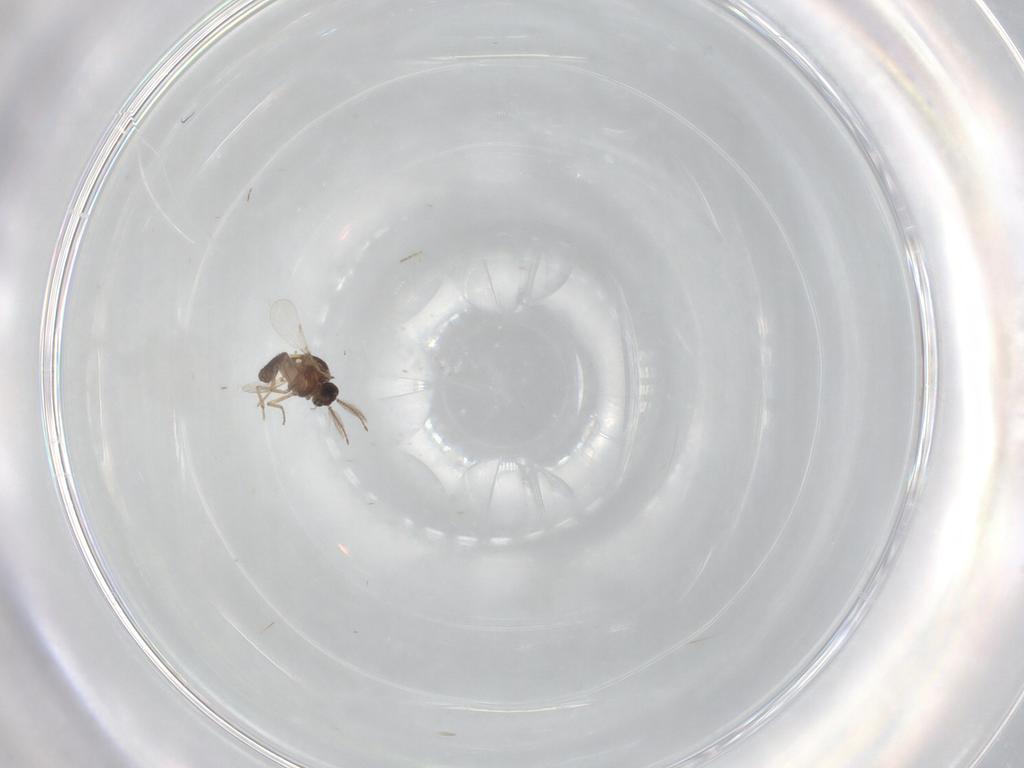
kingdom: Animalia
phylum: Arthropoda
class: Insecta
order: Diptera
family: Ceratopogonidae
